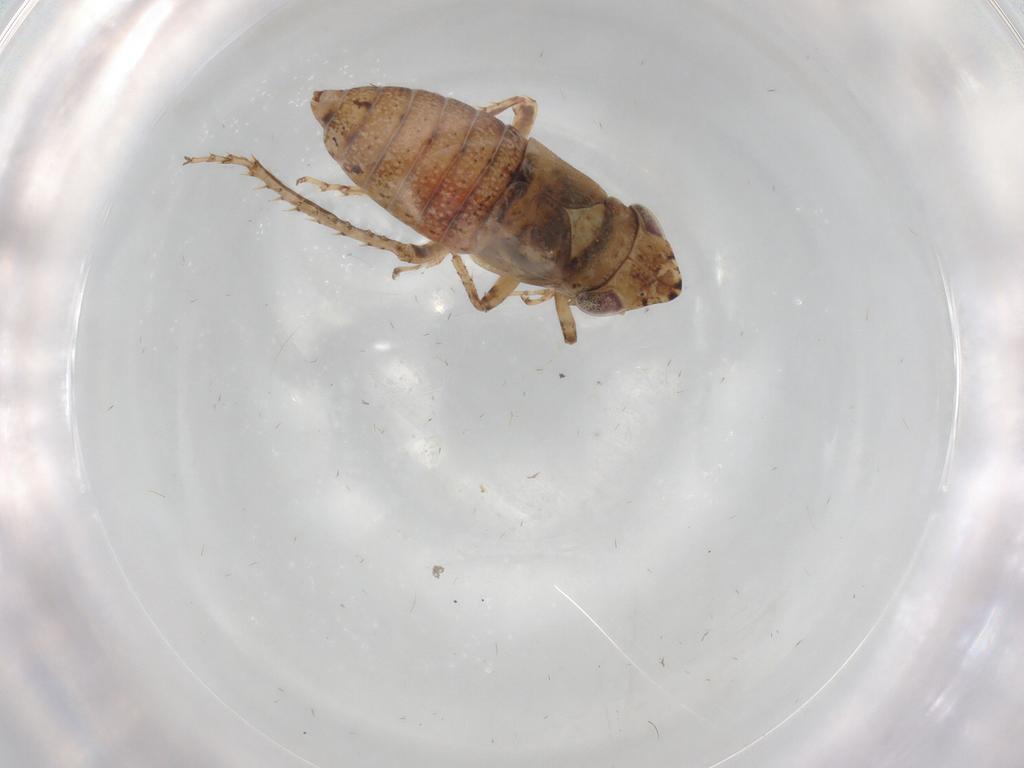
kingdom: Animalia
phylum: Arthropoda
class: Insecta
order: Hemiptera
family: Cicadellidae
